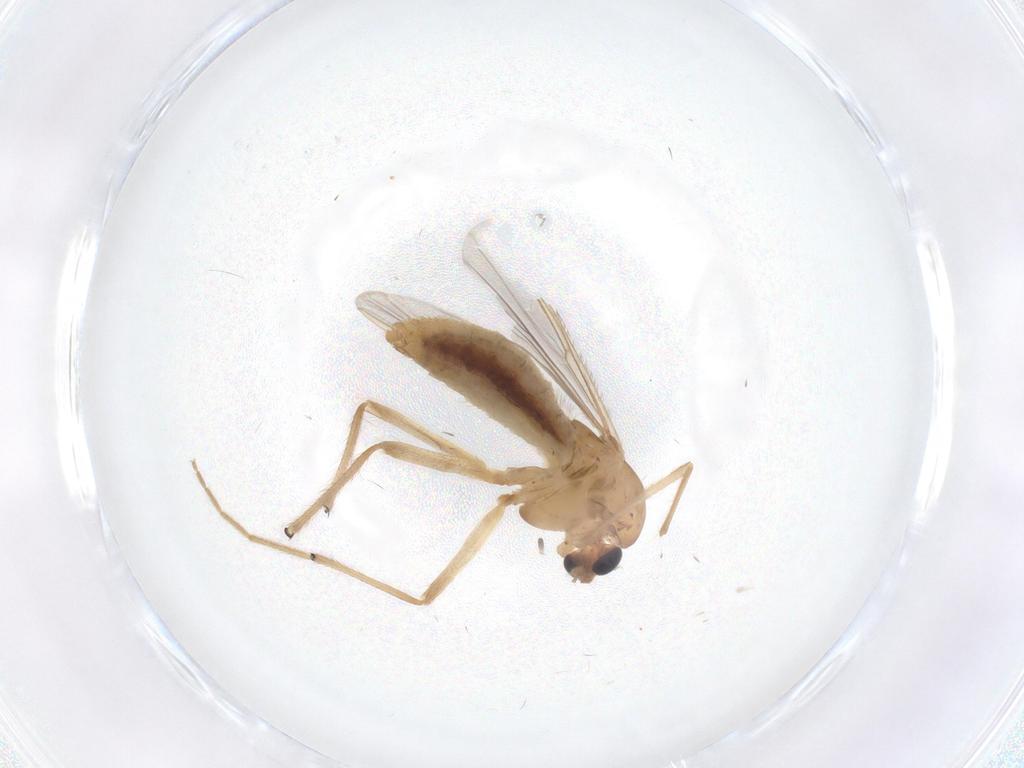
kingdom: Animalia
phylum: Arthropoda
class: Insecta
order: Diptera
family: Chironomidae
